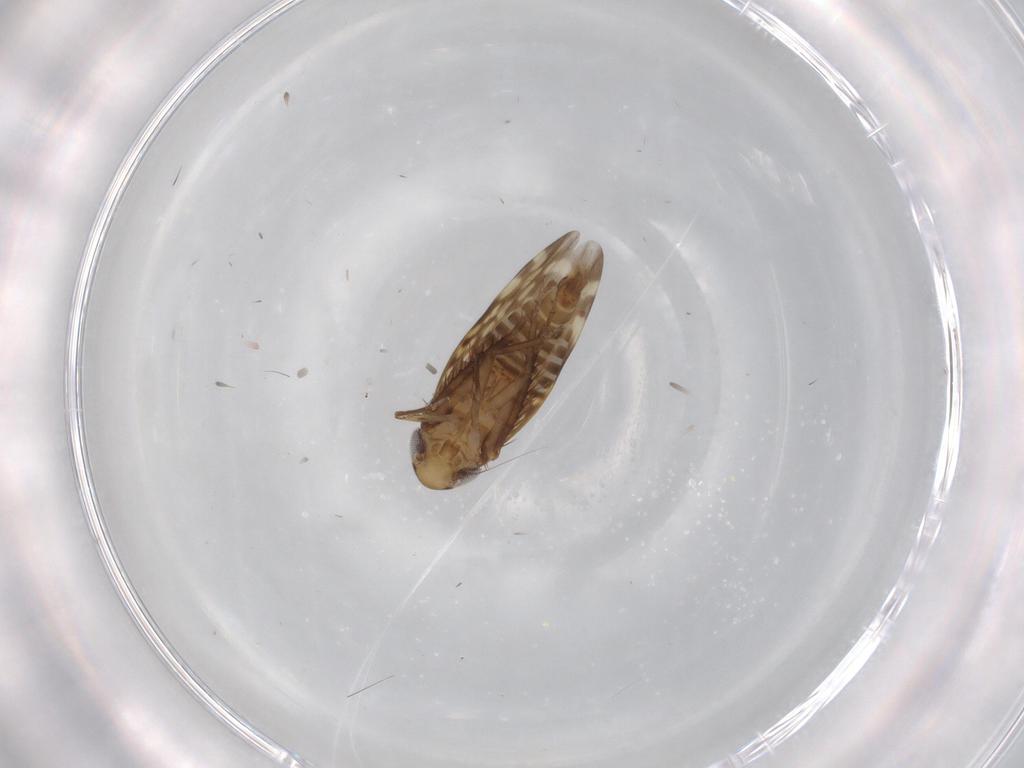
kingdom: Animalia
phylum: Arthropoda
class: Insecta
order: Hemiptera
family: Cicadellidae
